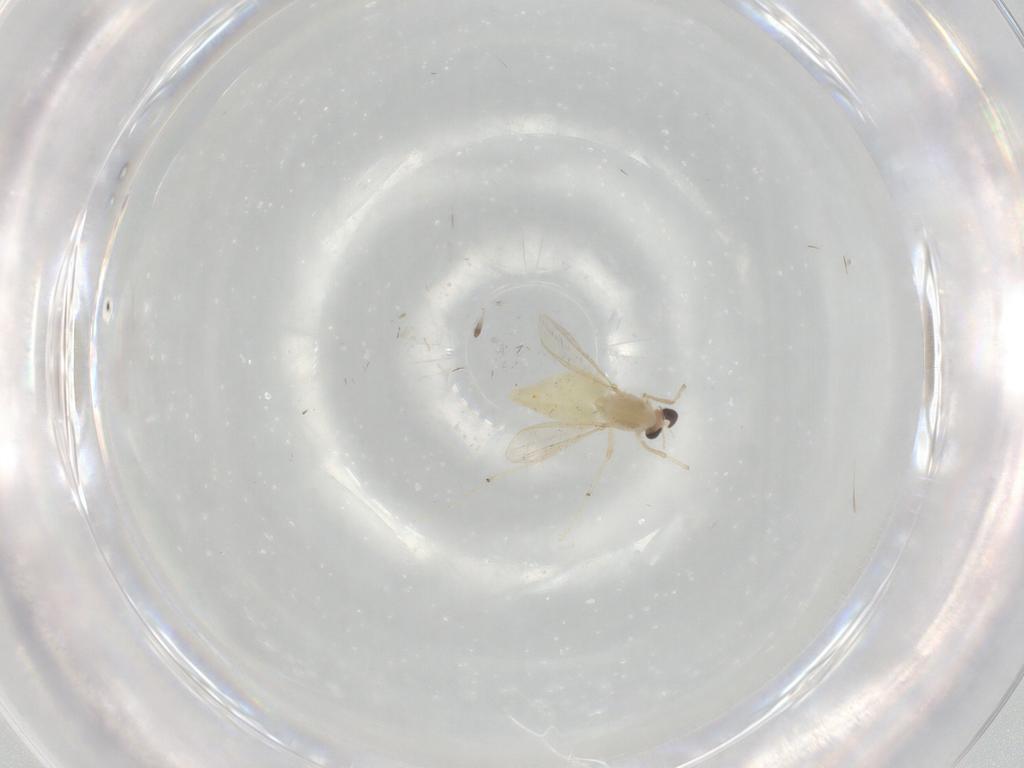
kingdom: Animalia
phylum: Arthropoda
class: Insecta
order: Diptera
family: Chironomidae
